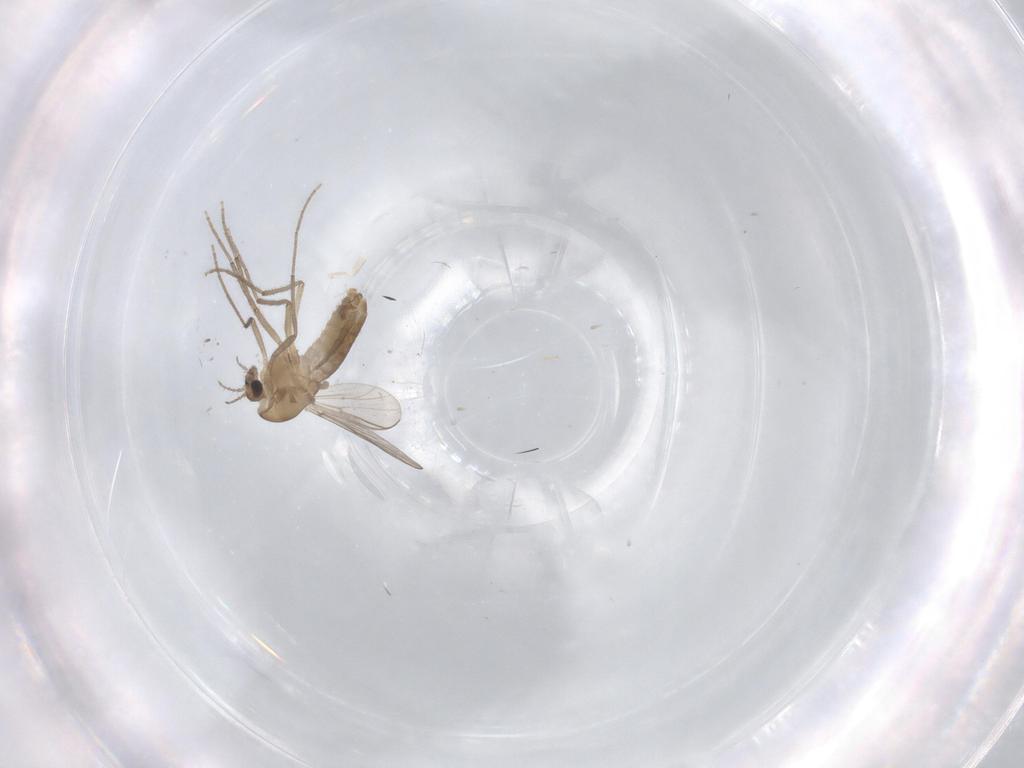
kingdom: Animalia
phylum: Arthropoda
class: Insecta
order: Diptera
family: Chironomidae
